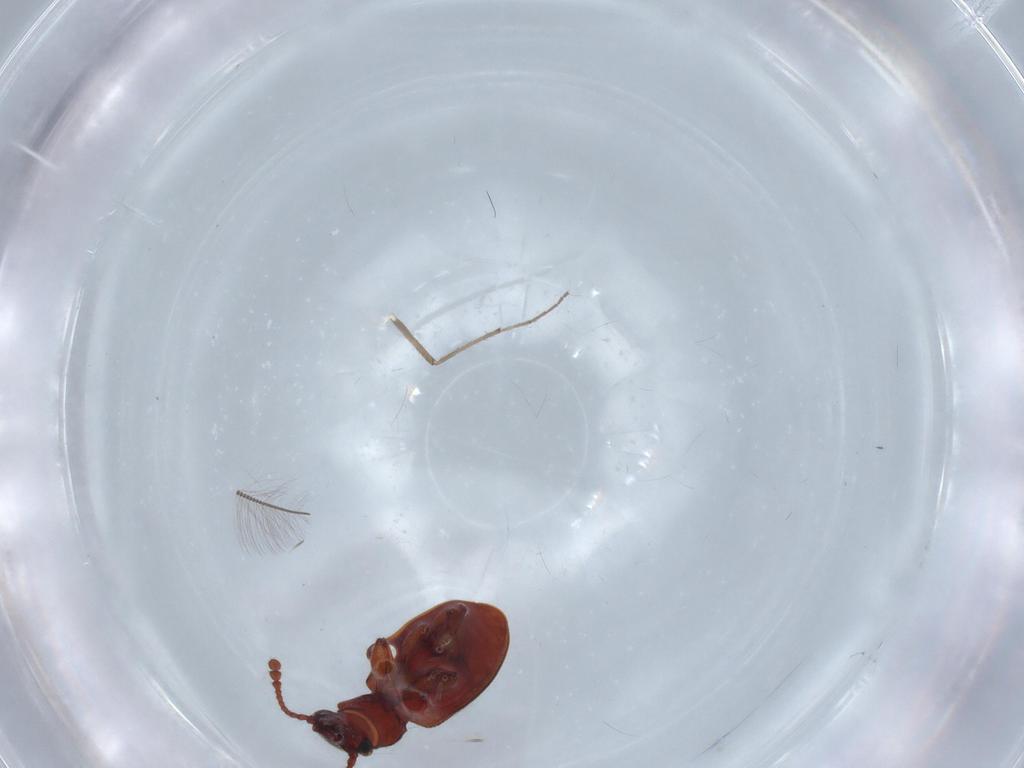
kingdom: Animalia
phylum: Arthropoda
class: Insecta
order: Coleoptera
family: Silvanidae
